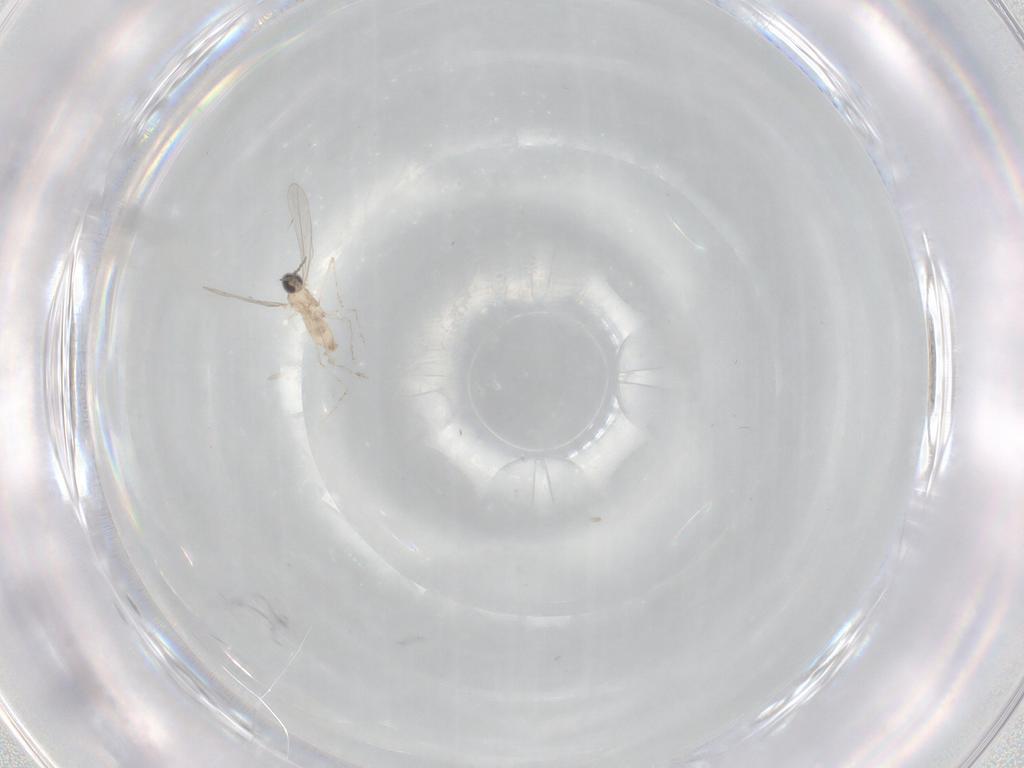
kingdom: Animalia
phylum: Arthropoda
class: Insecta
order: Diptera
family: Cecidomyiidae
